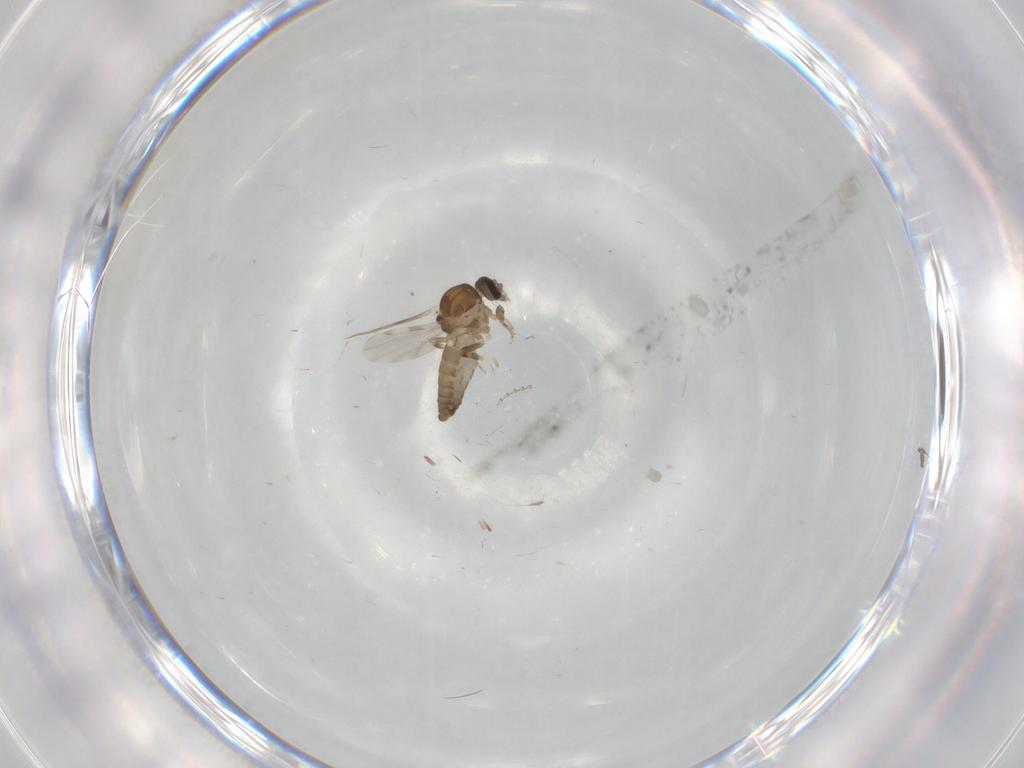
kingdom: Animalia
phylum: Arthropoda
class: Insecta
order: Diptera
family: Ceratopogonidae
